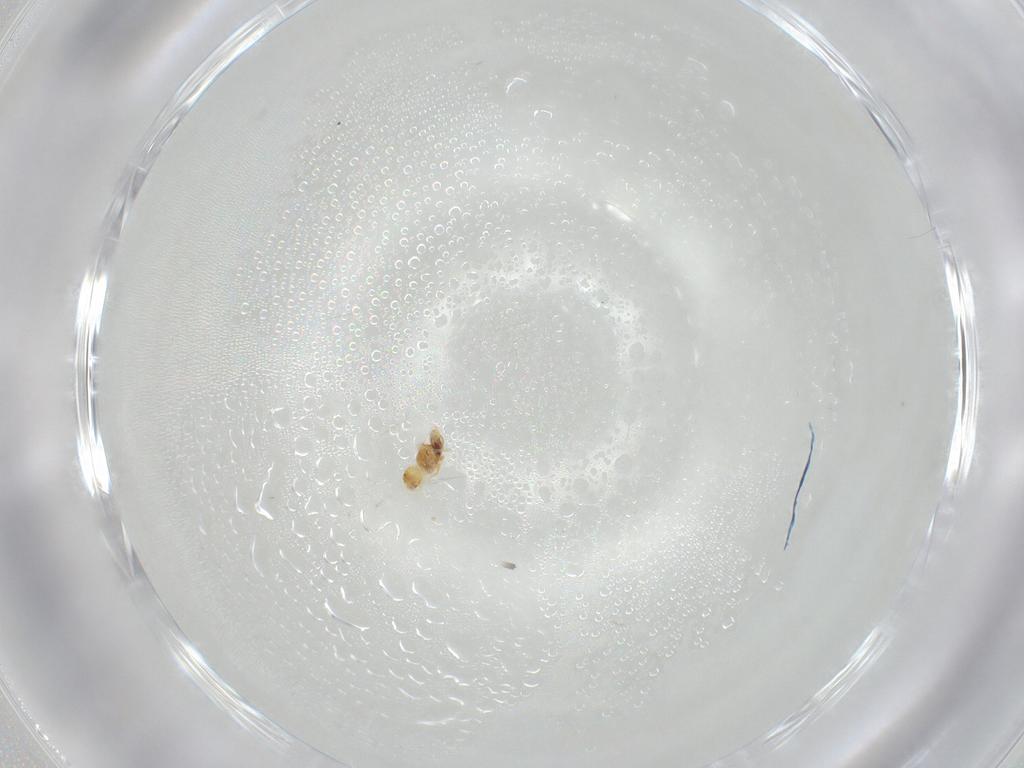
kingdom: Animalia
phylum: Arthropoda
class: Insecta
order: Hymenoptera
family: Eulophidae
